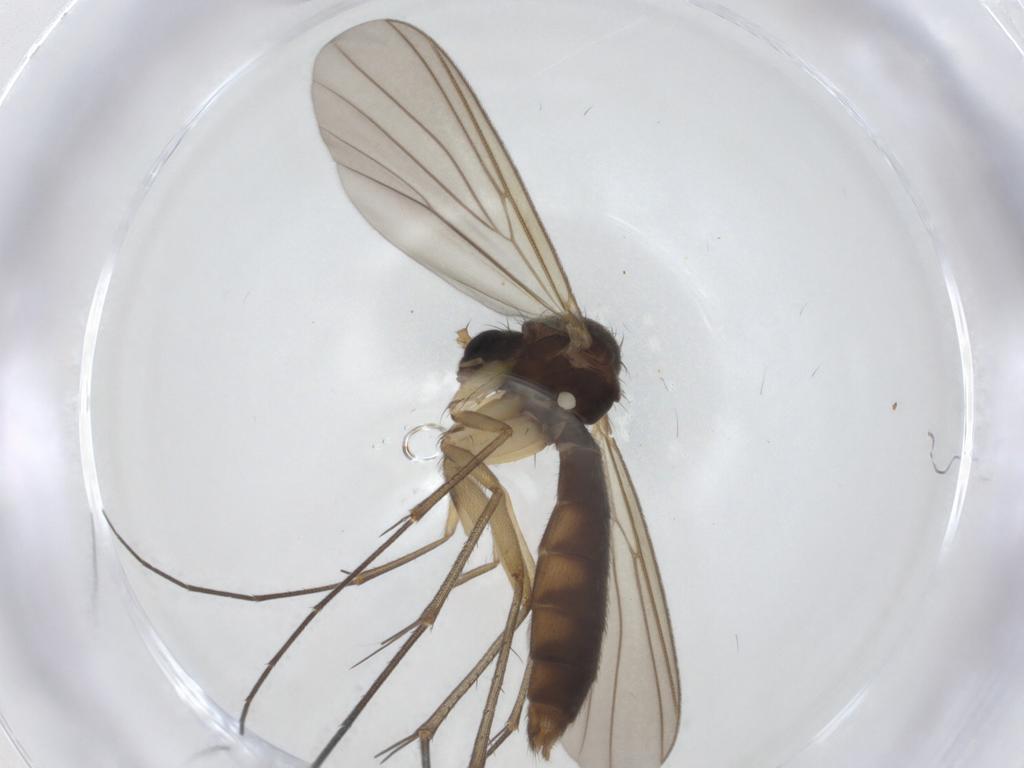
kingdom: Animalia
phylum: Arthropoda
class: Insecta
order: Diptera
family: Mycetophilidae
